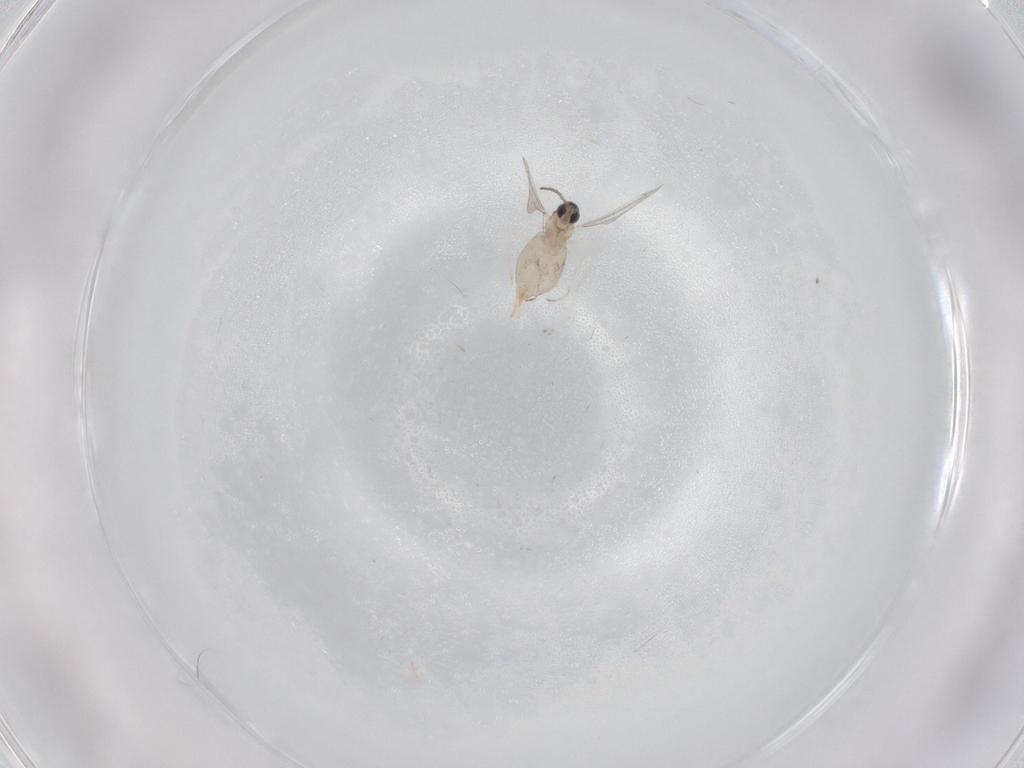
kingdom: Animalia
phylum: Arthropoda
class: Insecta
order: Diptera
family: Cecidomyiidae
